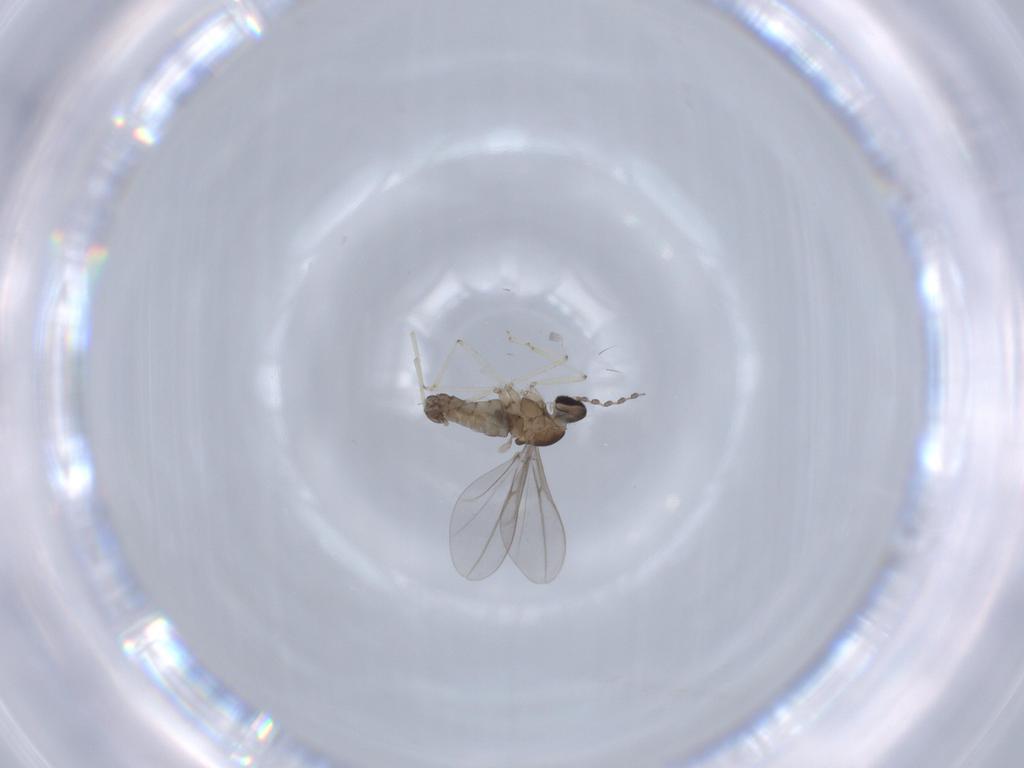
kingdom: Animalia
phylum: Arthropoda
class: Insecta
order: Diptera
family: Cecidomyiidae
